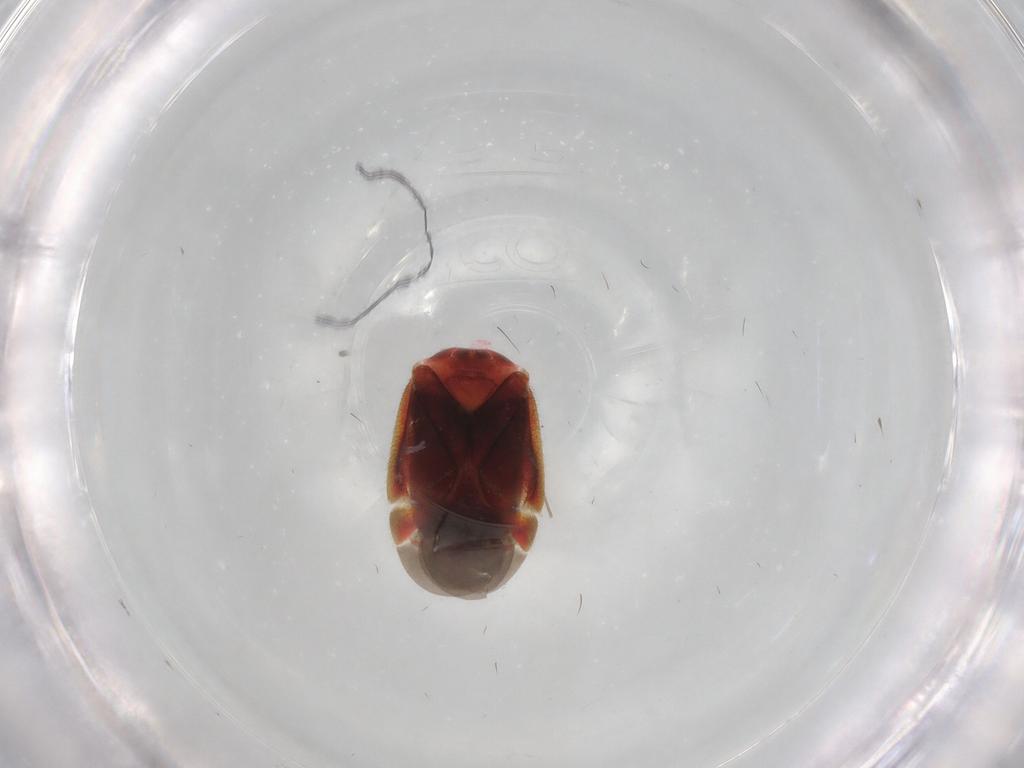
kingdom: Animalia
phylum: Arthropoda
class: Insecta
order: Hemiptera
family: Miridae
